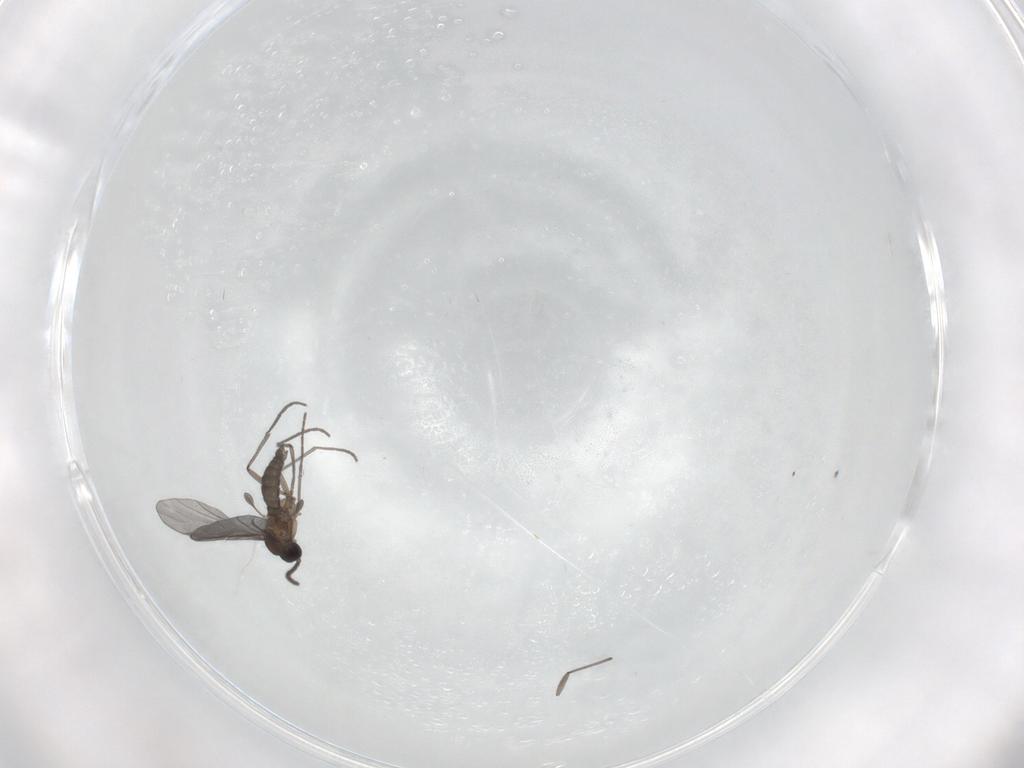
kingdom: Animalia
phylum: Arthropoda
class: Insecta
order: Diptera
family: Sciaridae
